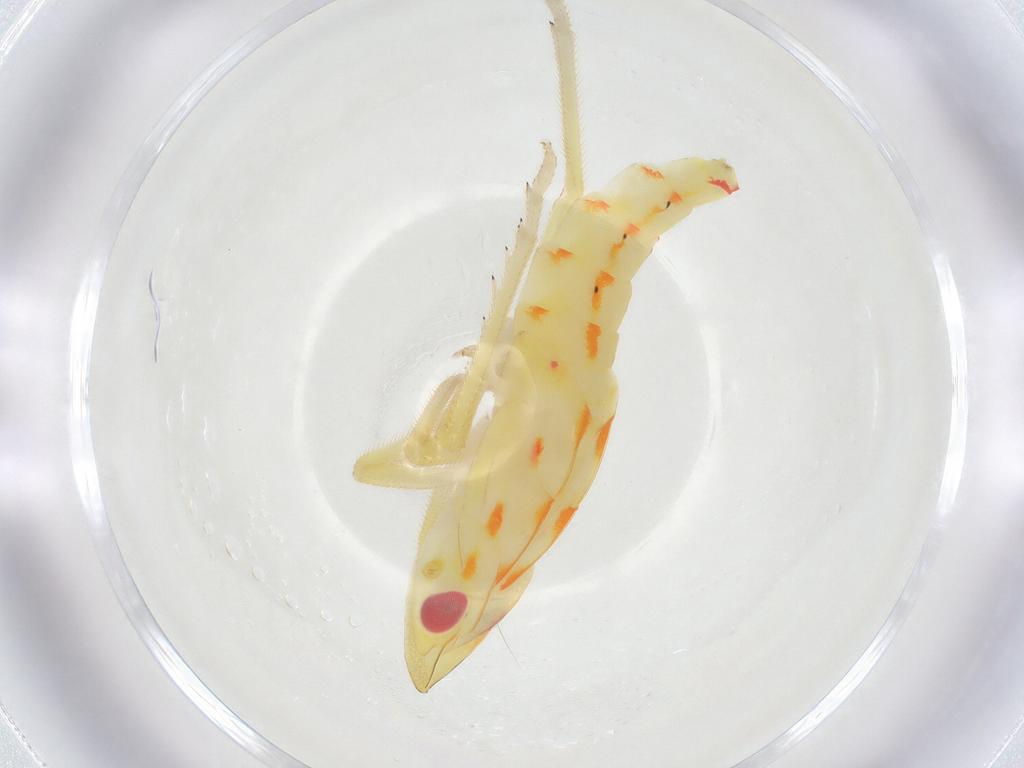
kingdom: Animalia
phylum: Arthropoda
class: Insecta
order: Hemiptera
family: Tropiduchidae
